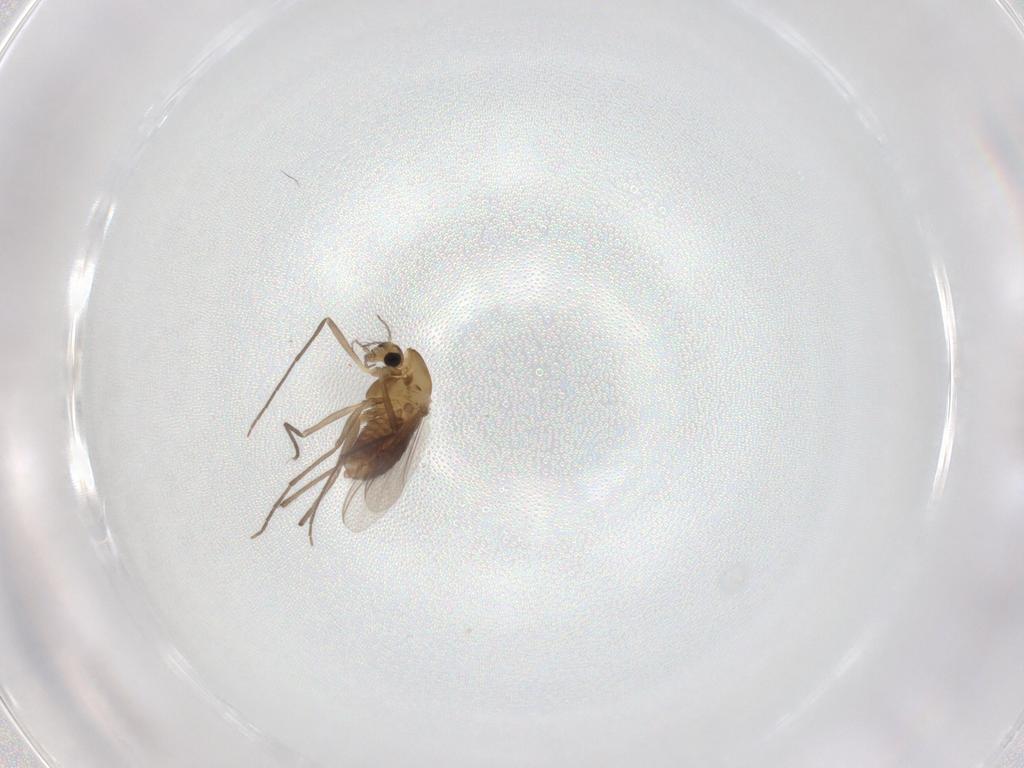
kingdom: Animalia
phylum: Arthropoda
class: Insecta
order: Diptera
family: Chironomidae
